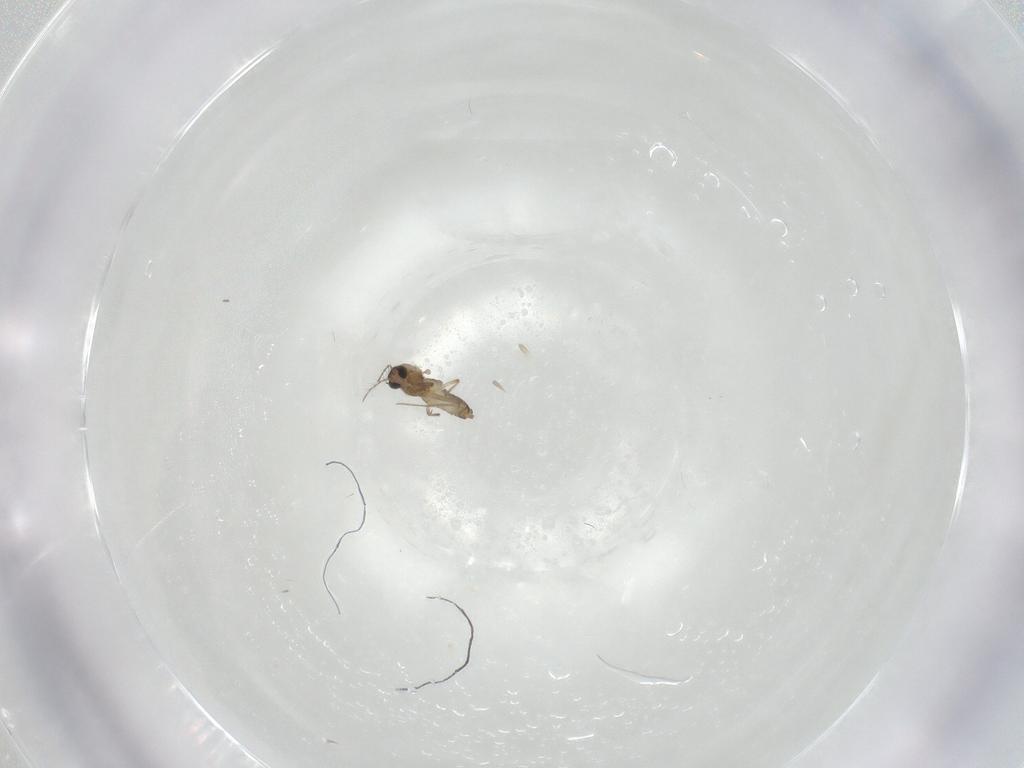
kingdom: Animalia
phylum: Arthropoda
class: Insecta
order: Diptera
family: Chironomidae
